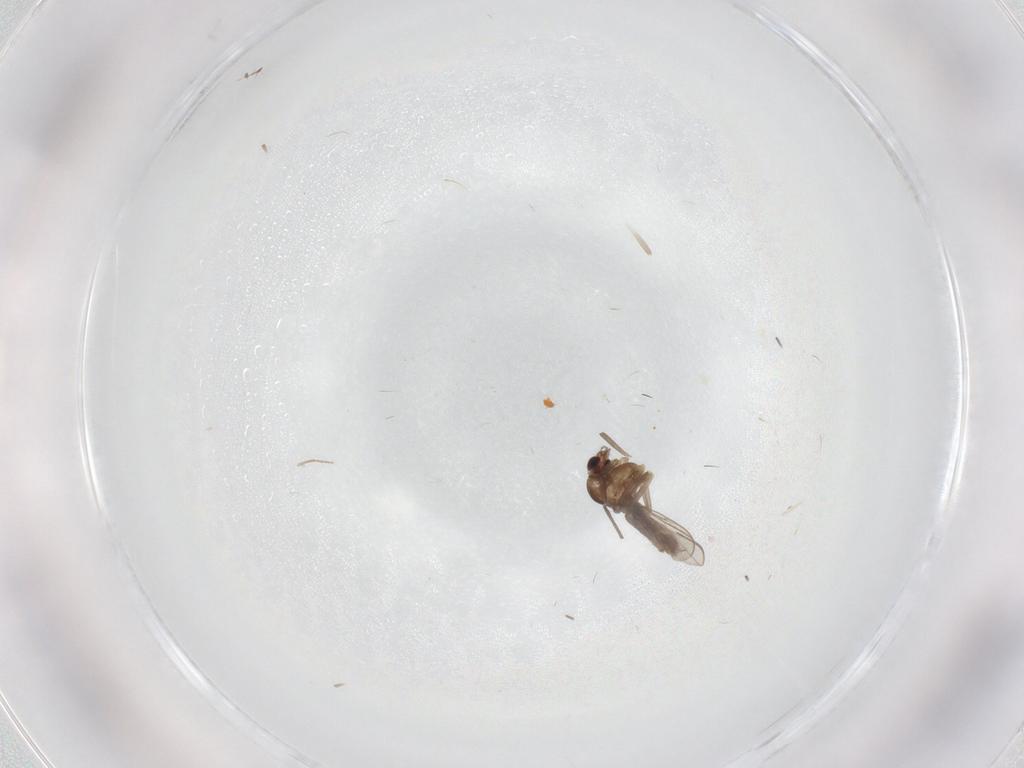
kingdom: Animalia
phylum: Arthropoda
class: Insecta
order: Diptera
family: Chironomidae
